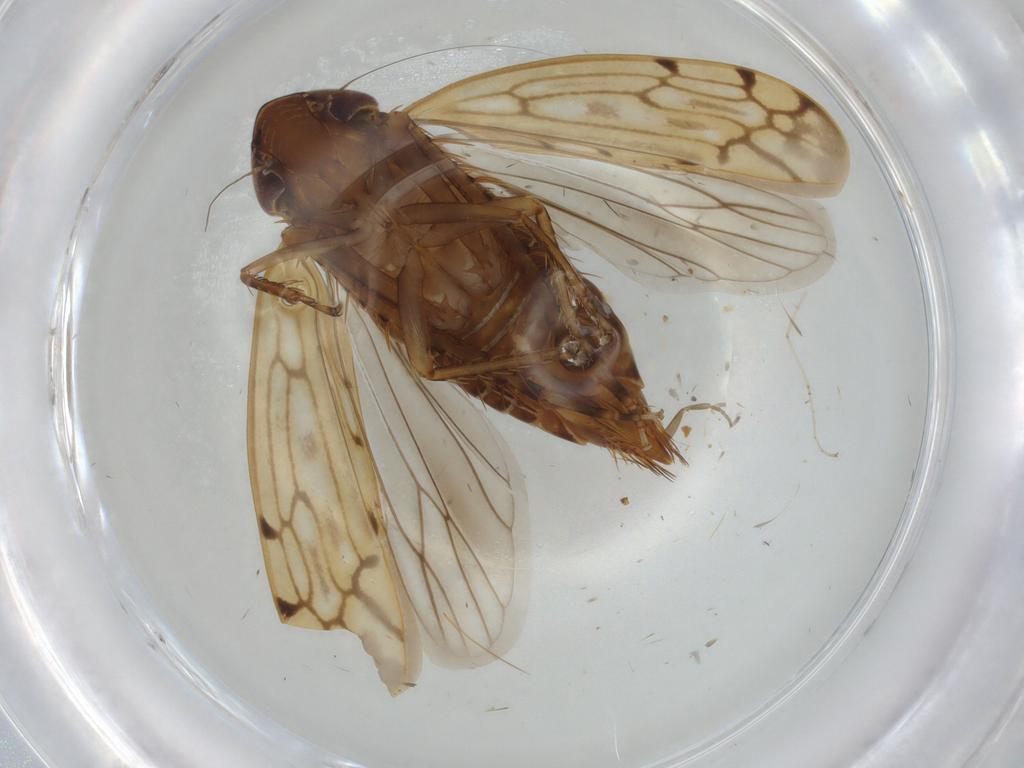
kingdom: Animalia
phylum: Arthropoda
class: Insecta
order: Hemiptera
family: Cicadellidae
